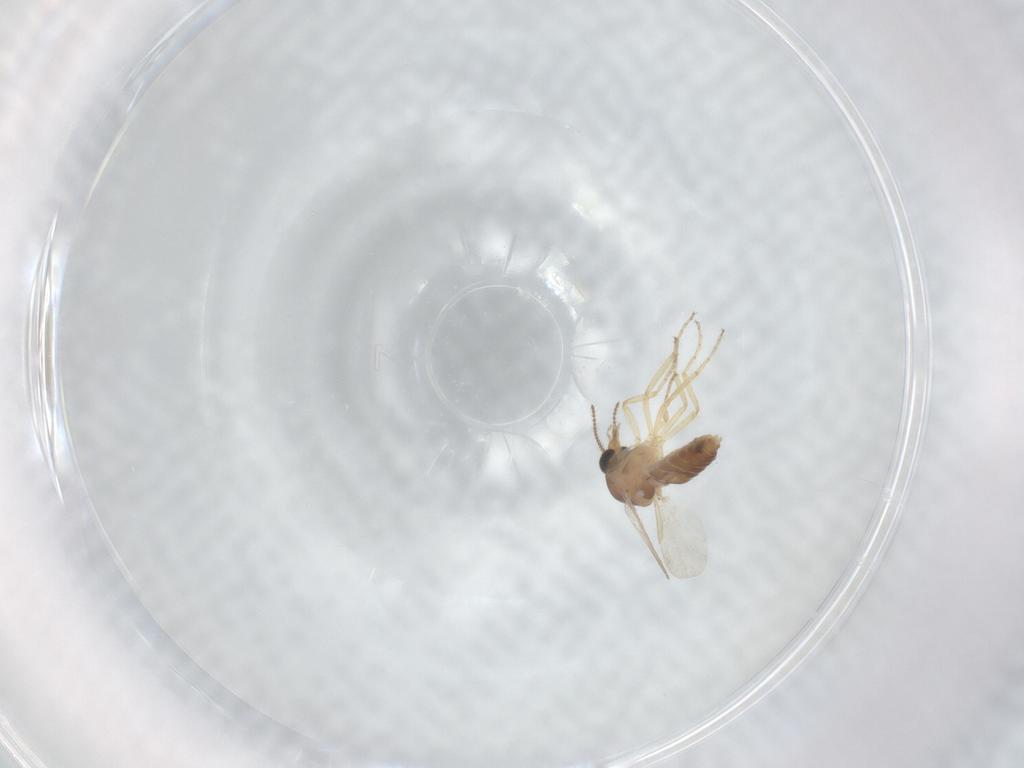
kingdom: Animalia
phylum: Arthropoda
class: Insecta
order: Diptera
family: Ceratopogonidae
